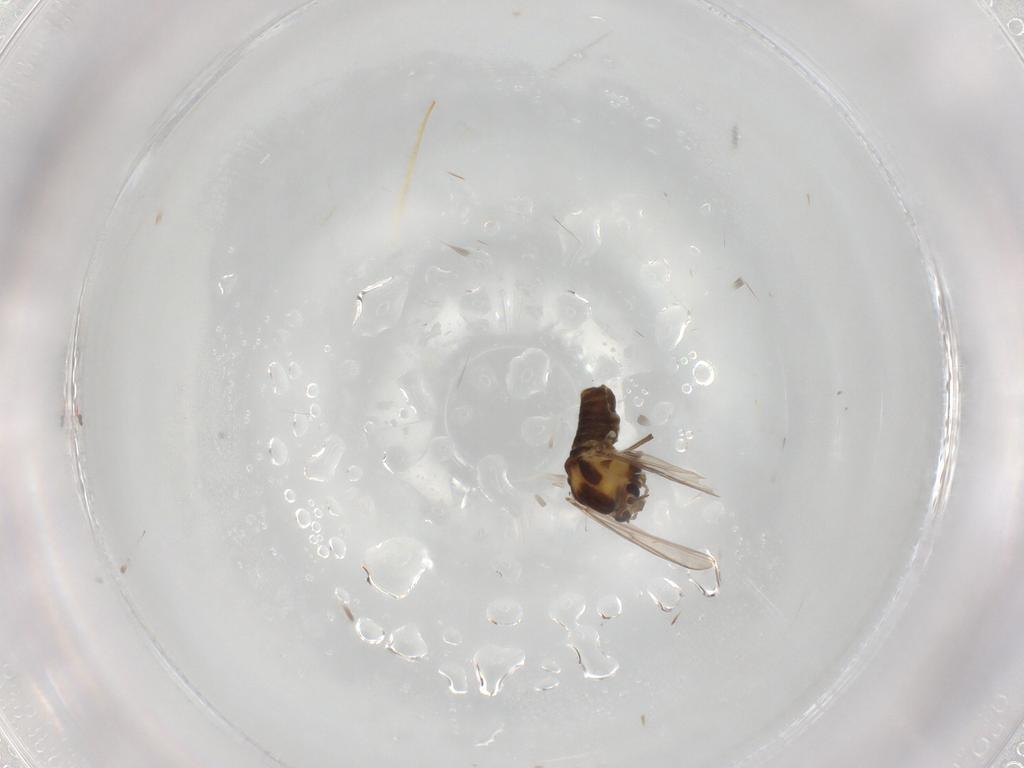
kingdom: Animalia
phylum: Arthropoda
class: Insecta
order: Diptera
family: Chironomidae
